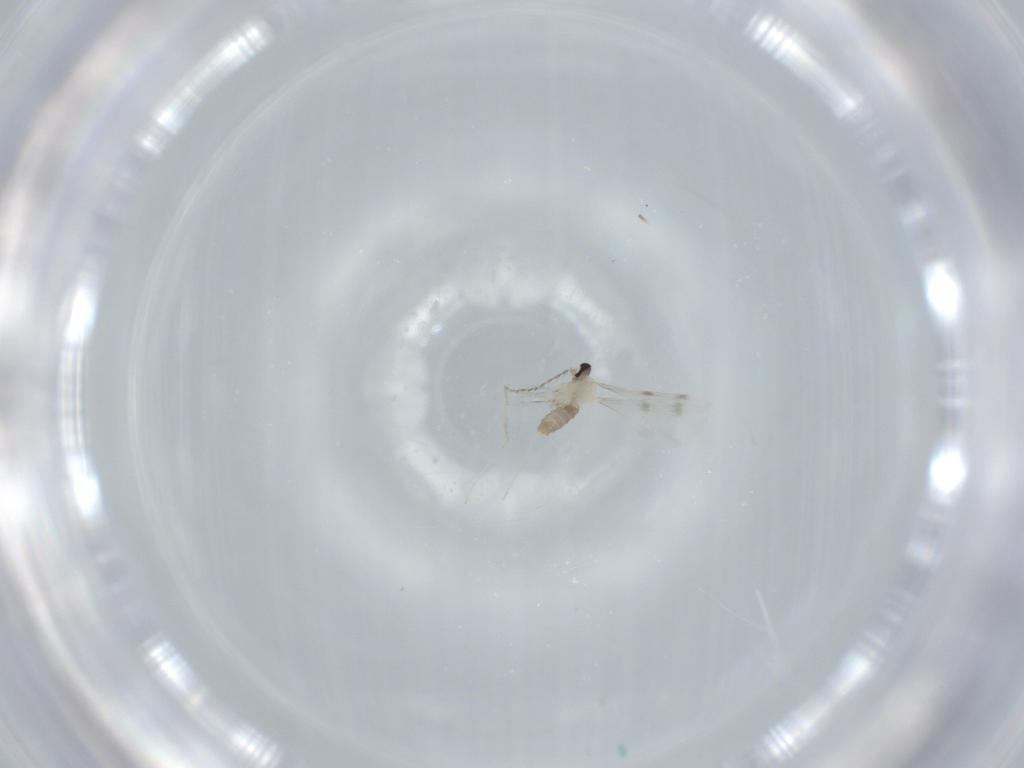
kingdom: Animalia
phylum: Arthropoda
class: Insecta
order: Diptera
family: Cecidomyiidae
